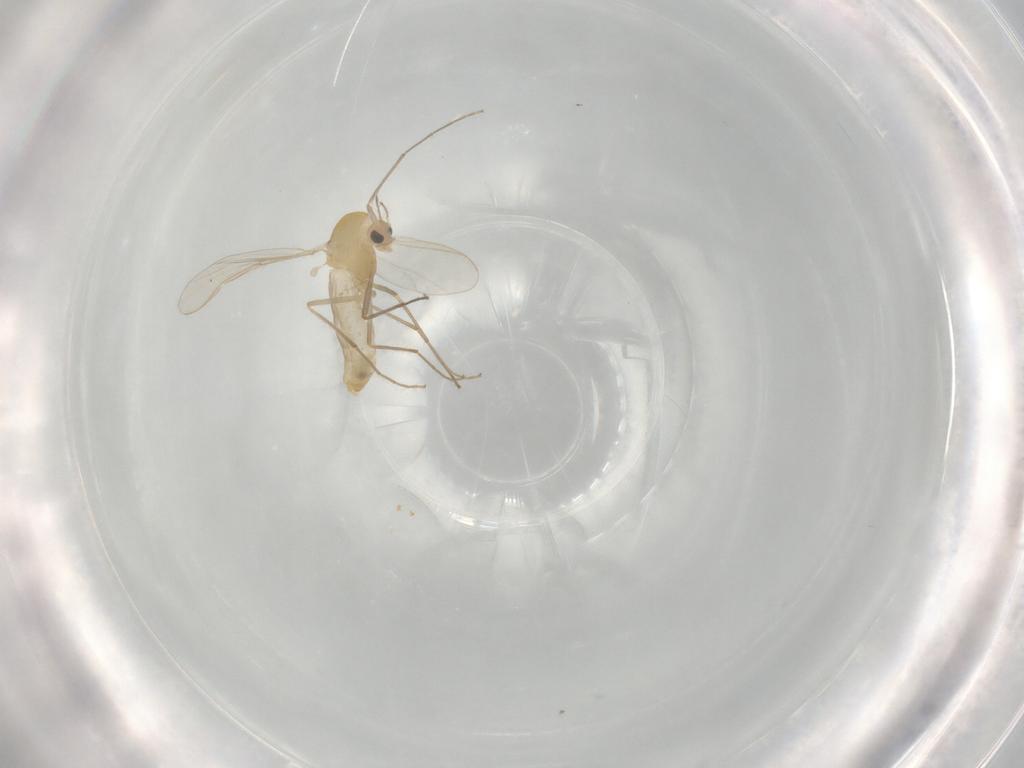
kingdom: Animalia
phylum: Arthropoda
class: Insecta
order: Diptera
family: Chironomidae
